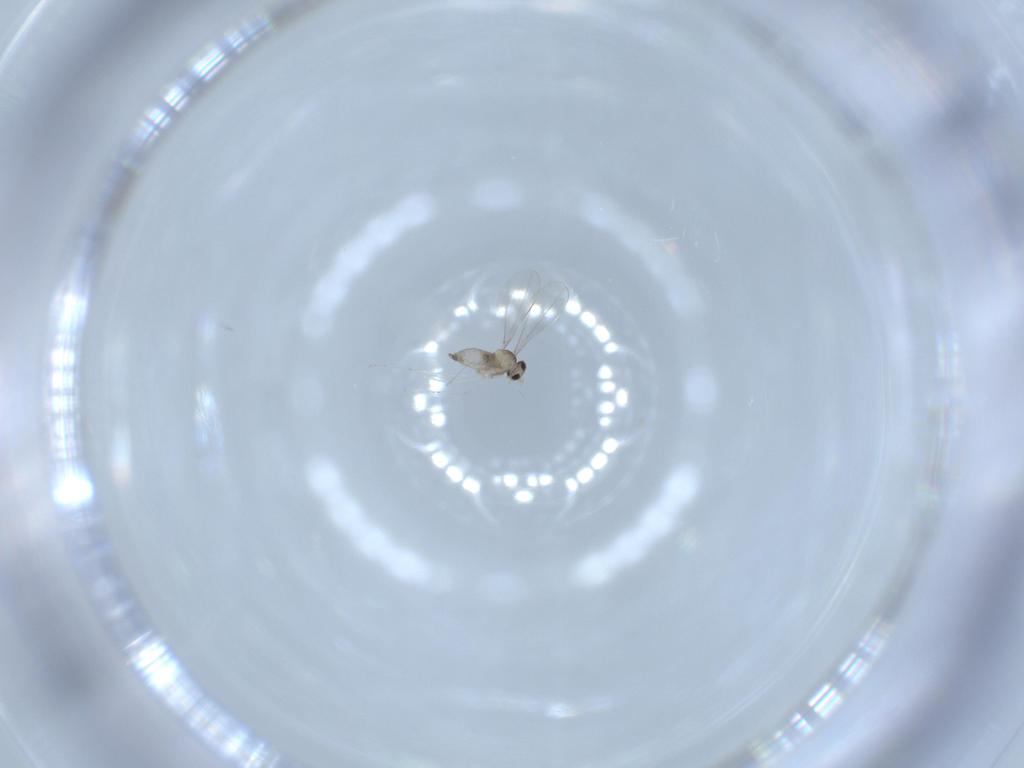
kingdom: Animalia
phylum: Arthropoda
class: Insecta
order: Diptera
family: Cecidomyiidae
